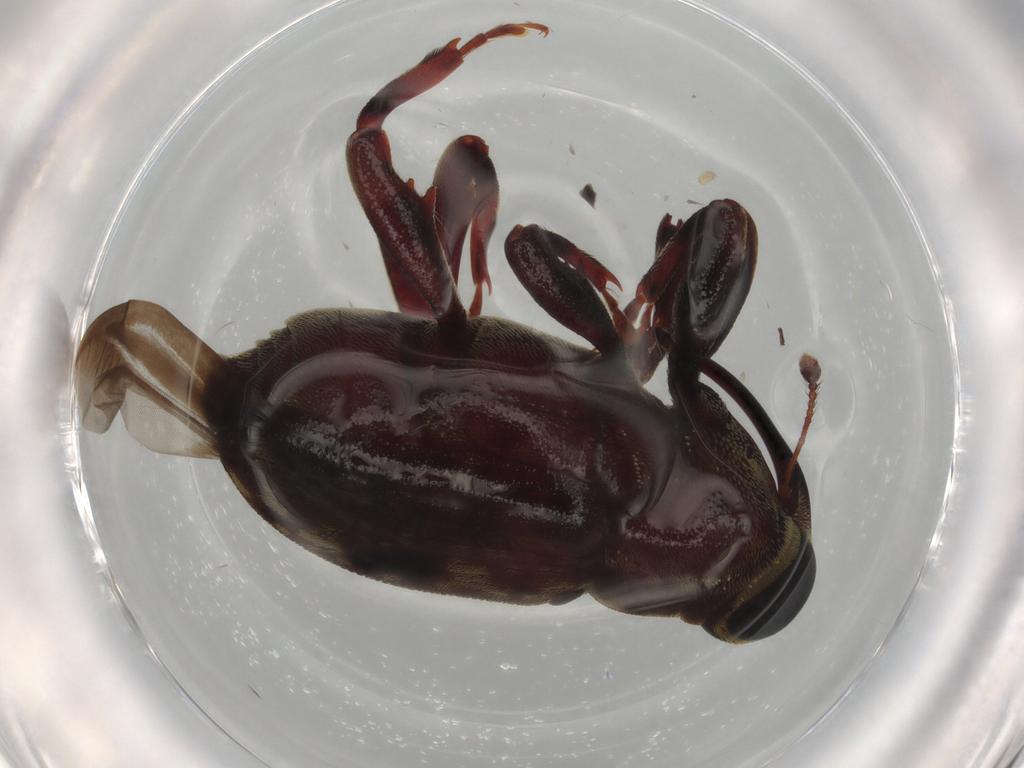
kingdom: Animalia
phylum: Arthropoda
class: Insecta
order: Coleoptera
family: Curculionidae
